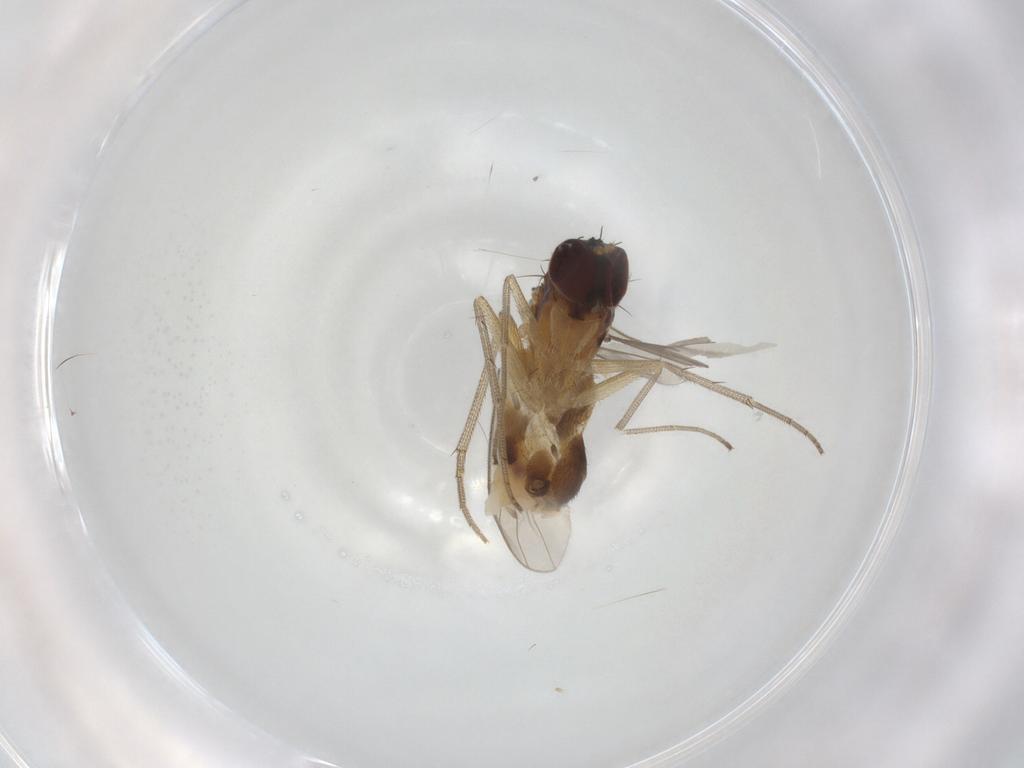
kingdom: Animalia
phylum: Arthropoda
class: Insecta
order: Diptera
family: Dolichopodidae
